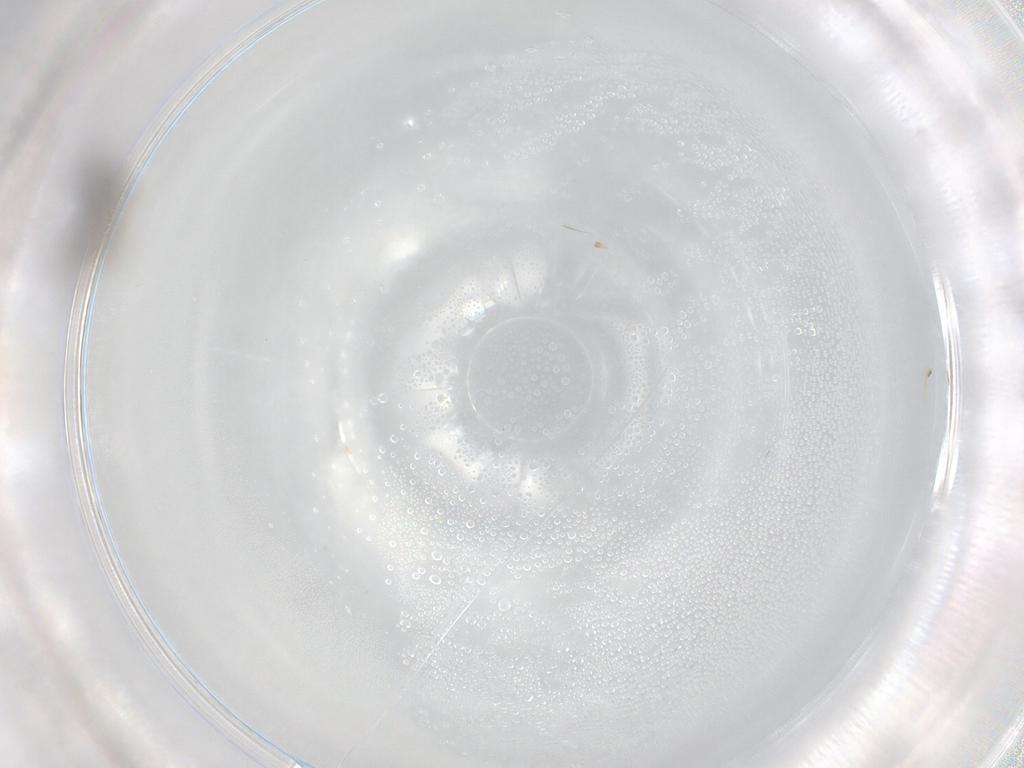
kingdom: Animalia
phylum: Arthropoda
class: Insecta
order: Diptera
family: Phoridae
